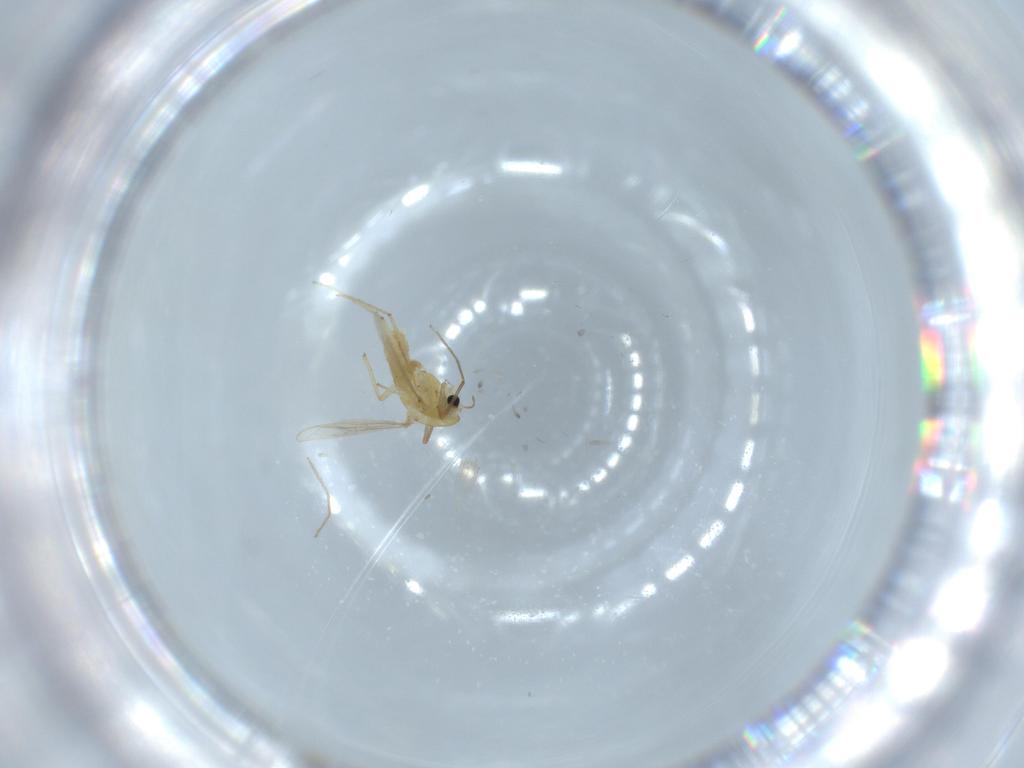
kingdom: Animalia
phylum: Arthropoda
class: Insecta
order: Diptera
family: Chironomidae
